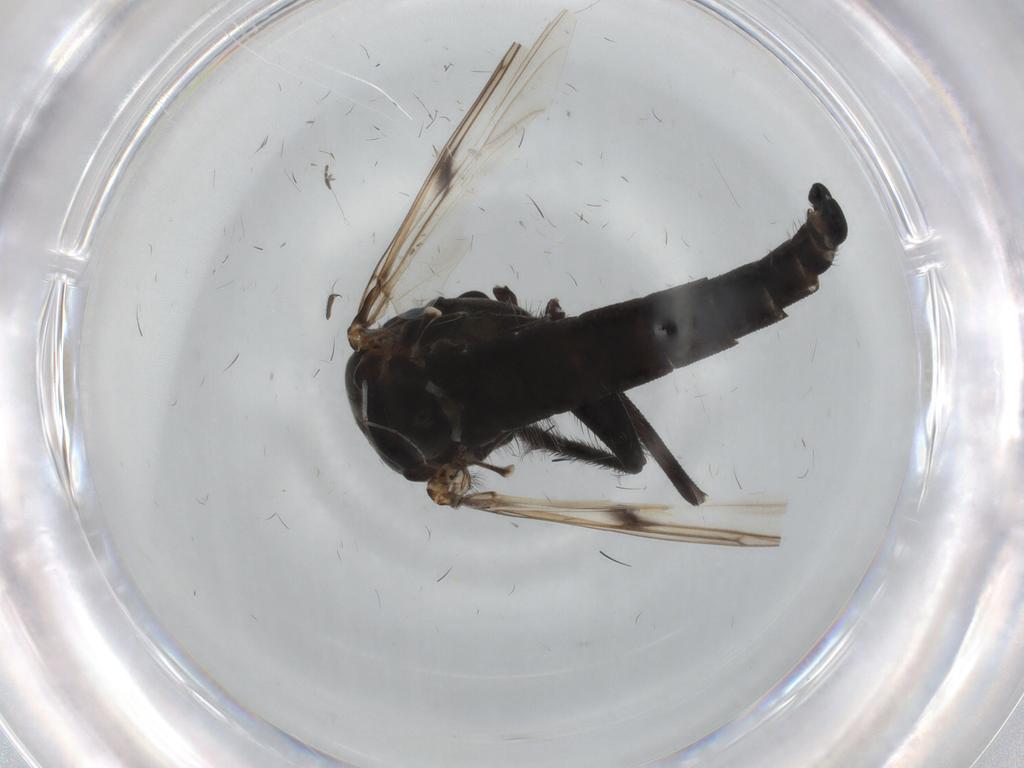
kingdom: Animalia
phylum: Arthropoda
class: Insecta
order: Diptera
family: Chironomidae
